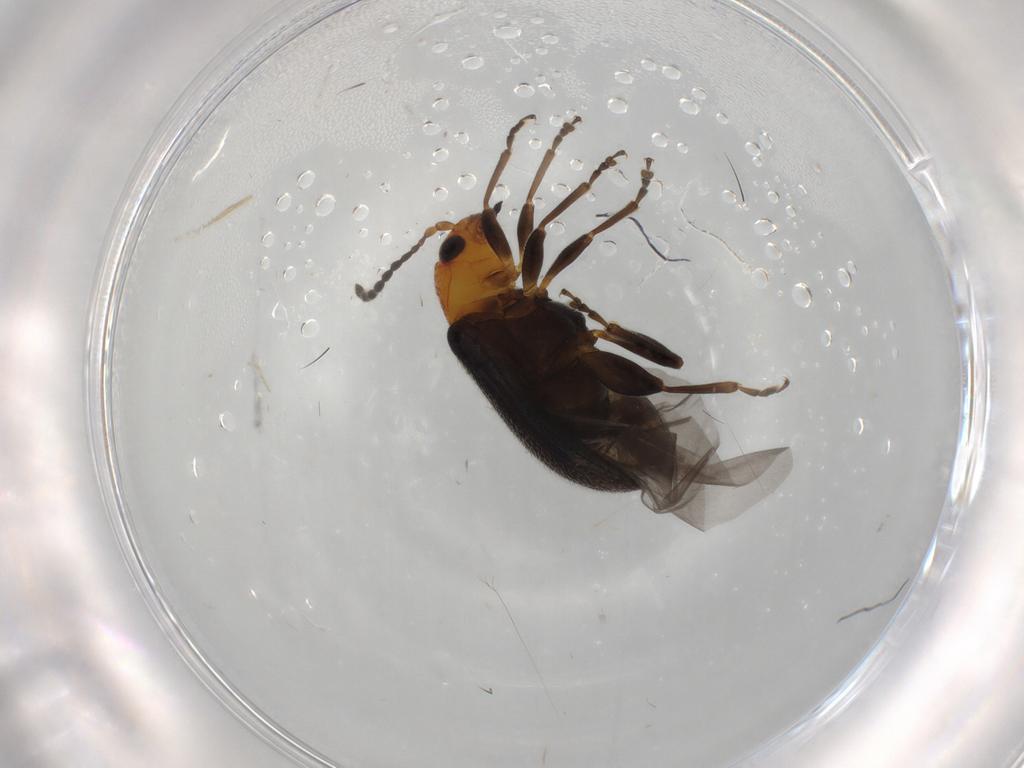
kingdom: Animalia
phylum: Arthropoda
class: Insecta
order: Coleoptera
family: Chrysomelidae
